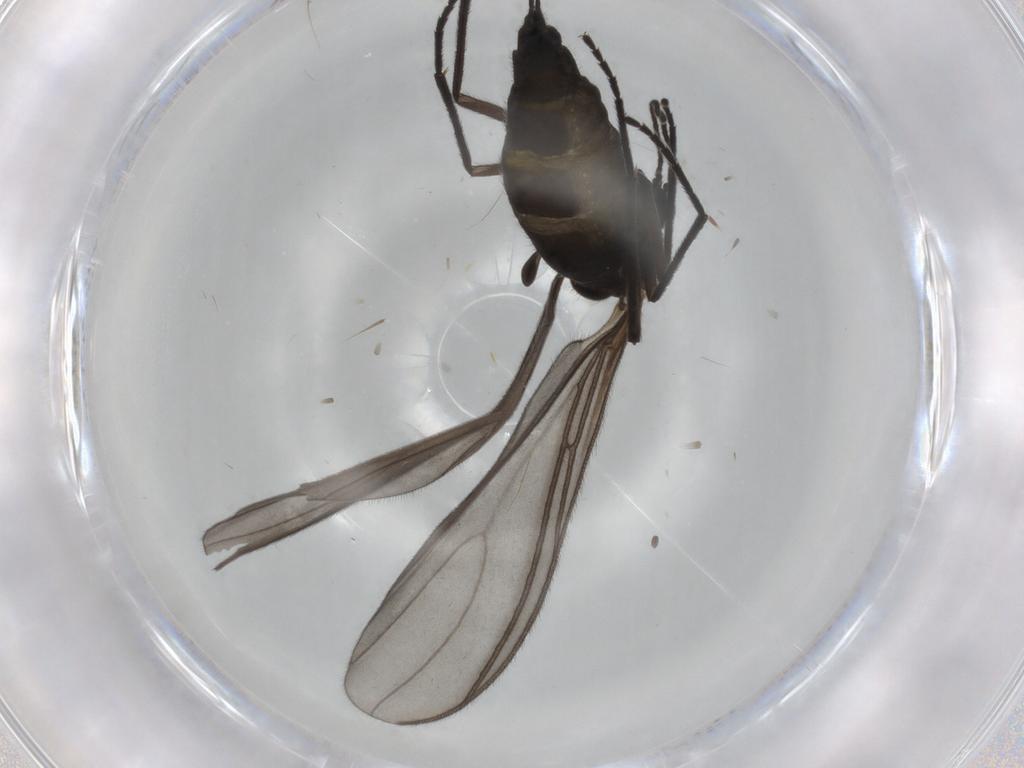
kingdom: Animalia
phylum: Arthropoda
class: Insecta
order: Diptera
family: Sciaridae
